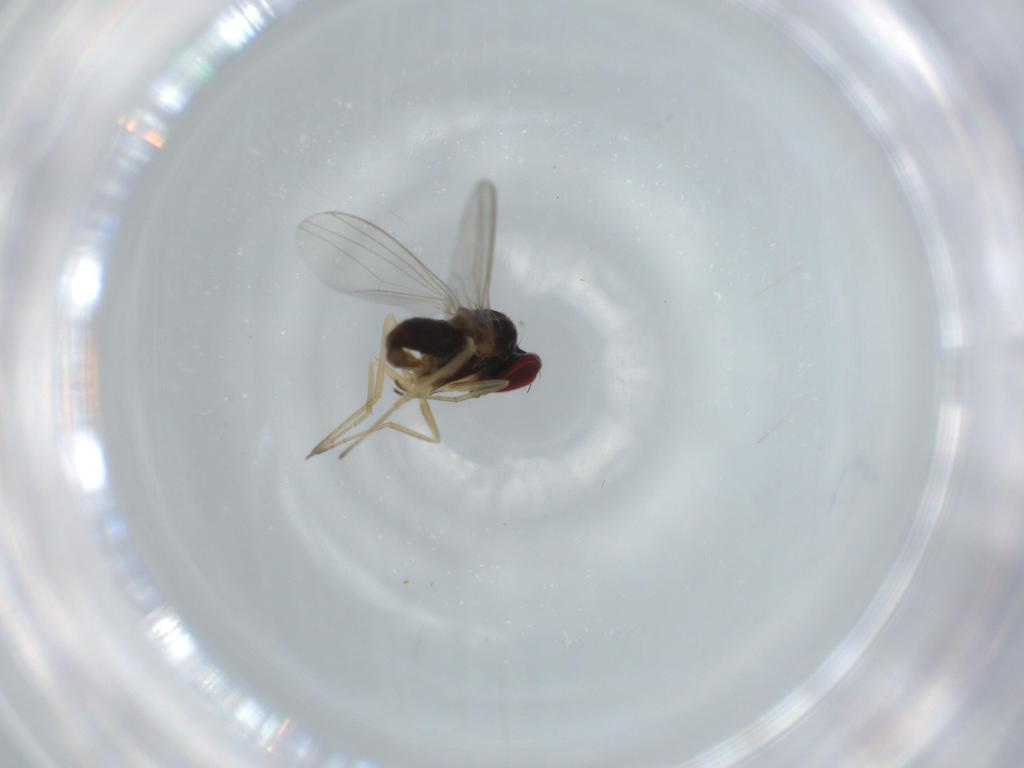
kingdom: Animalia
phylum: Arthropoda
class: Insecta
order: Diptera
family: Dolichopodidae
